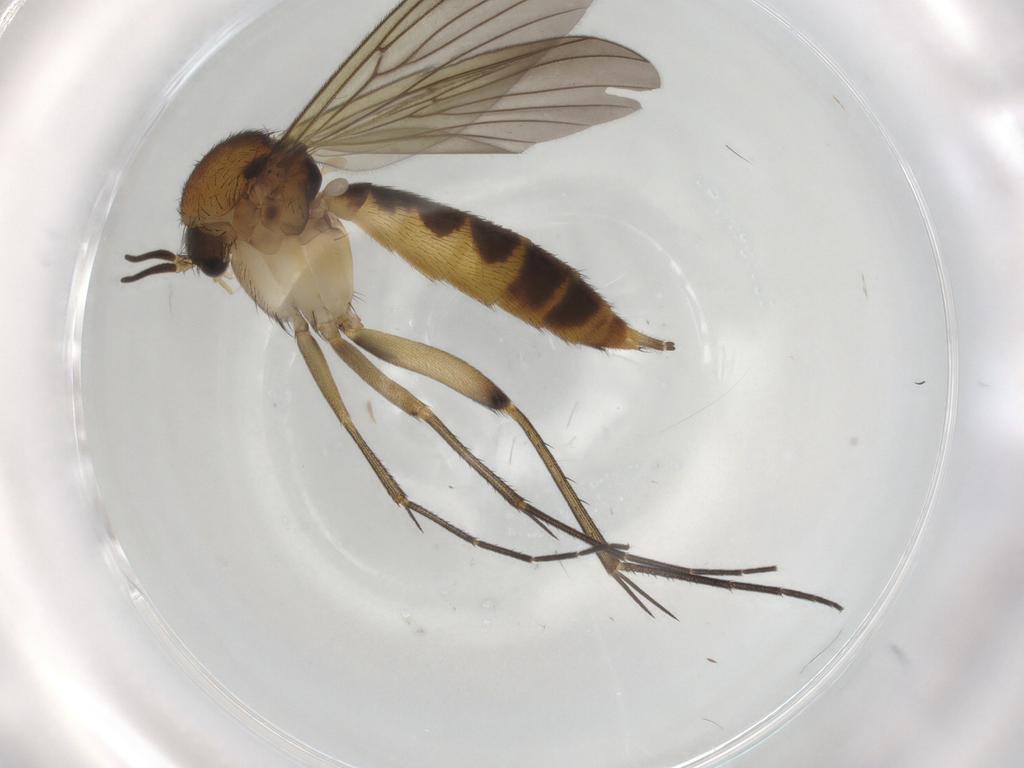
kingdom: Animalia
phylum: Arthropoda
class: Insecta
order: Diptera
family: Mycetophilidae
